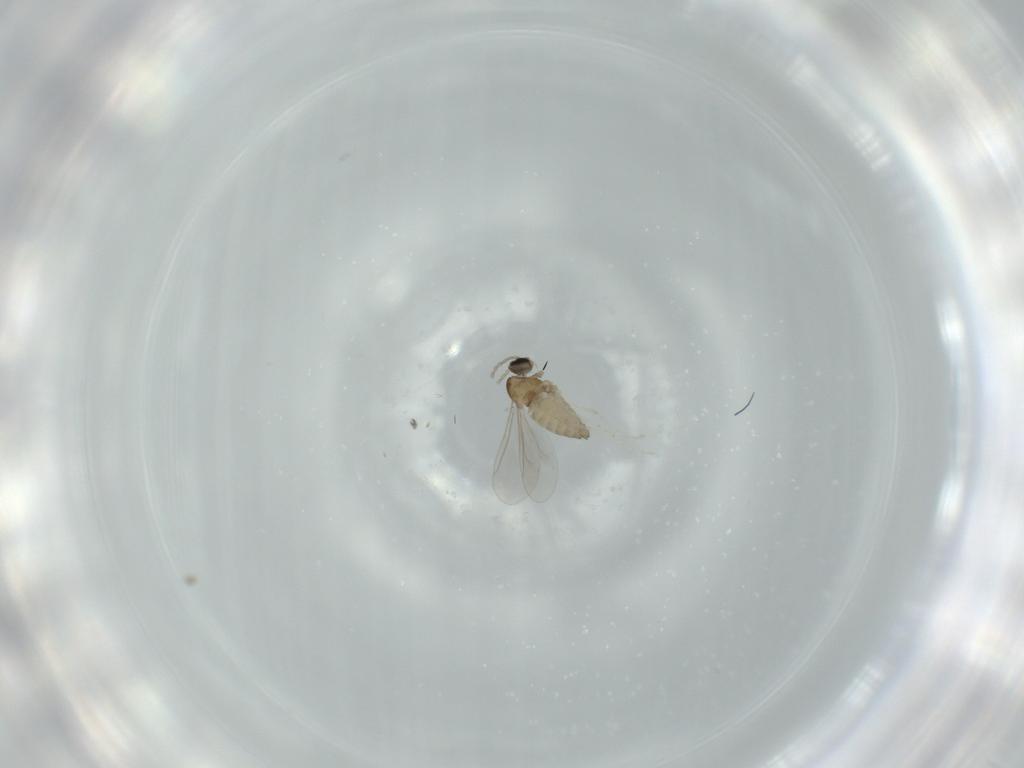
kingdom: Animalia
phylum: Arthropoda
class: Insecta
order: Diptera
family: Cecidomyiidae
